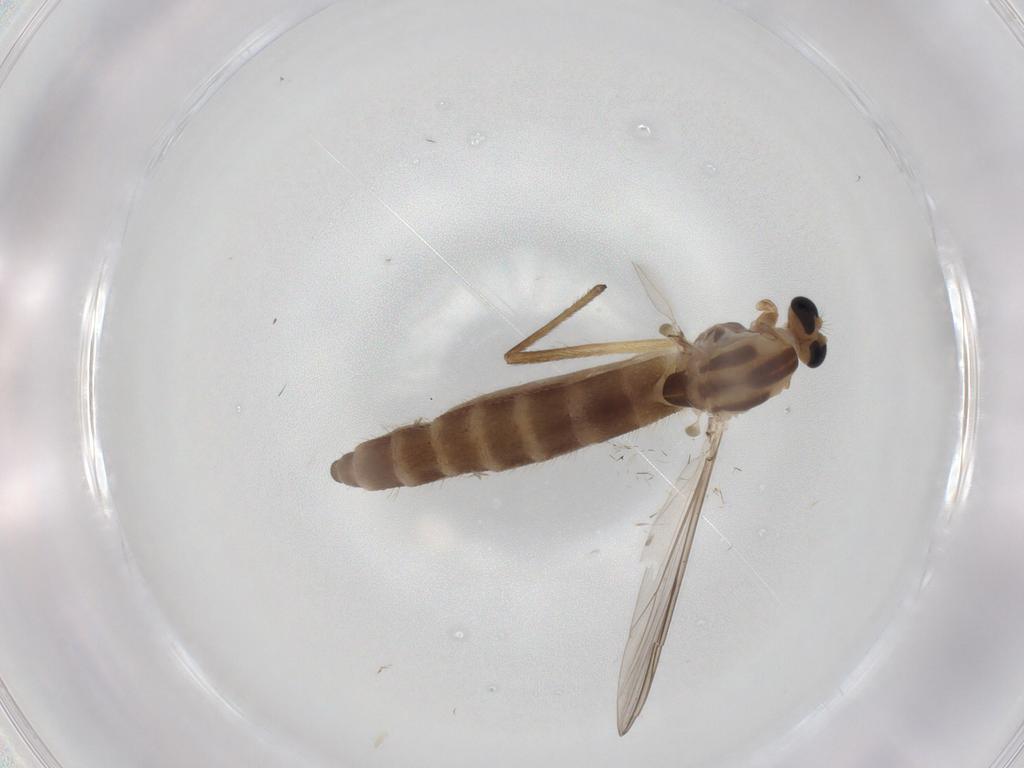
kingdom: Animalia
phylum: Arthropoda
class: Insecta
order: Diptera
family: Chironomidae
